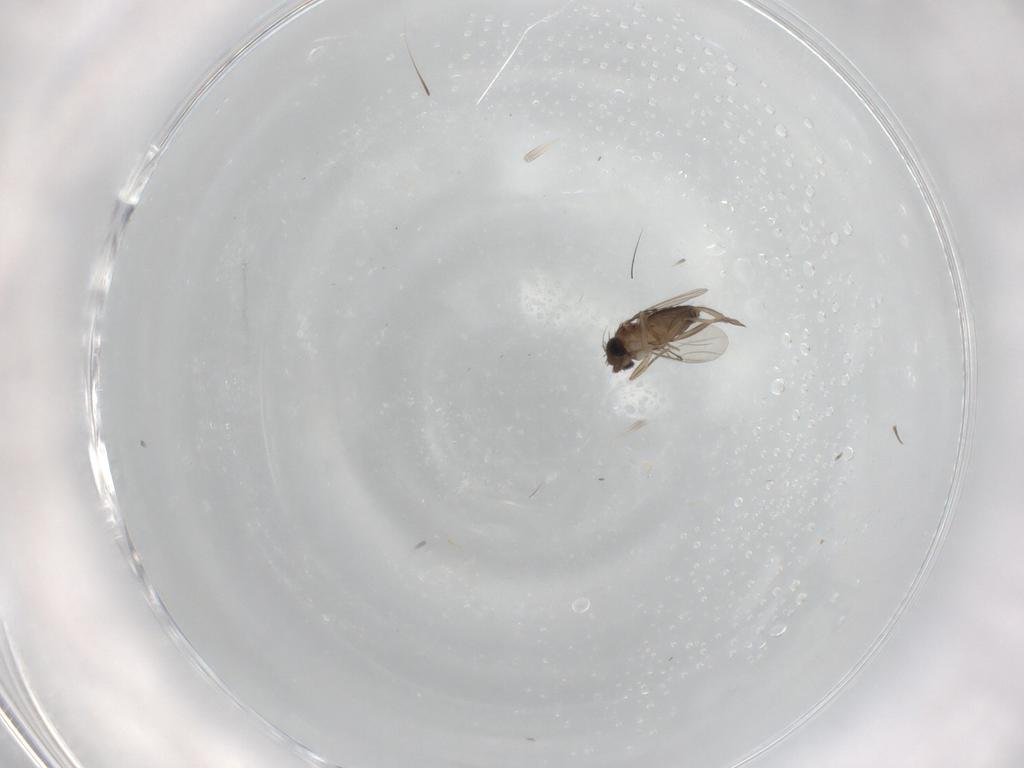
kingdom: Animalia
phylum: Arthropoda
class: Insecta
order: Diptera
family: Phoridae
